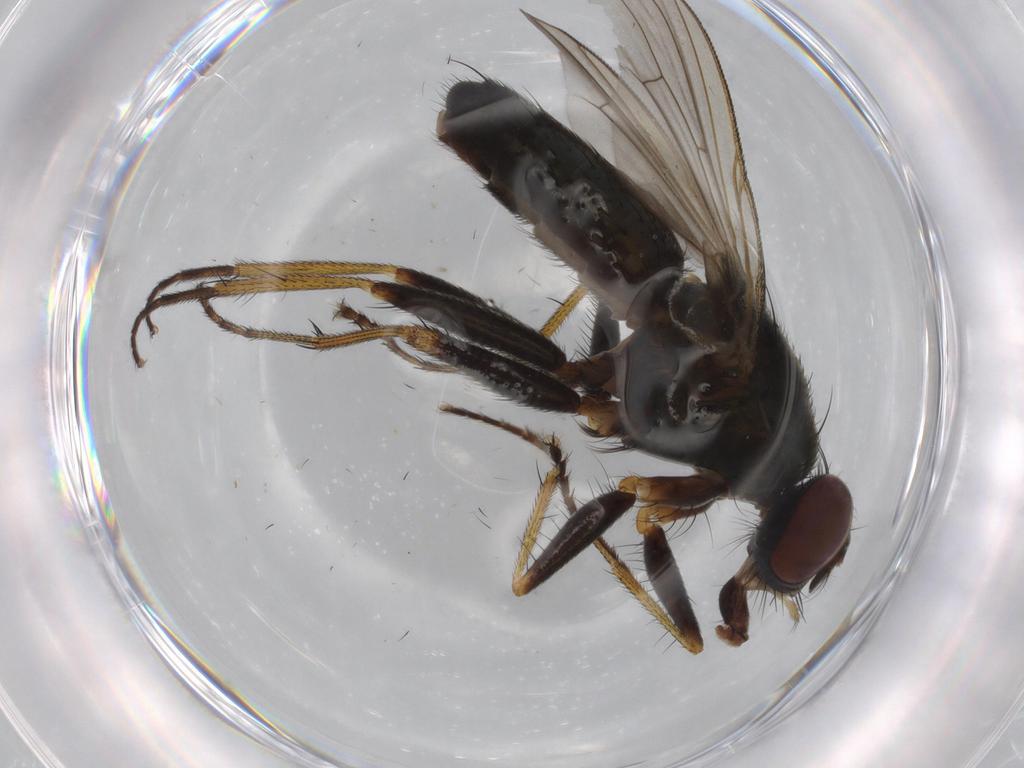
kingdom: Animalia
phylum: Arthropoda
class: Insecta
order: Diptera
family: Muscidae
